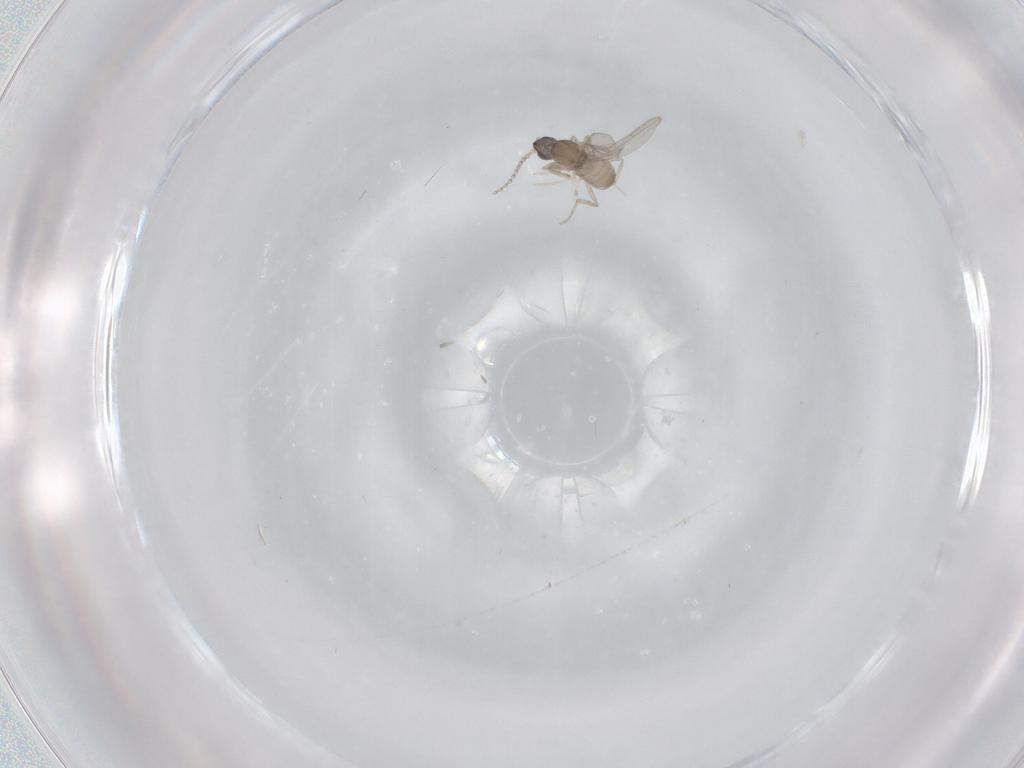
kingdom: Animalia
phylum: Arthropoda
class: Insecta
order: Diptera
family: Cecidomyiidae
